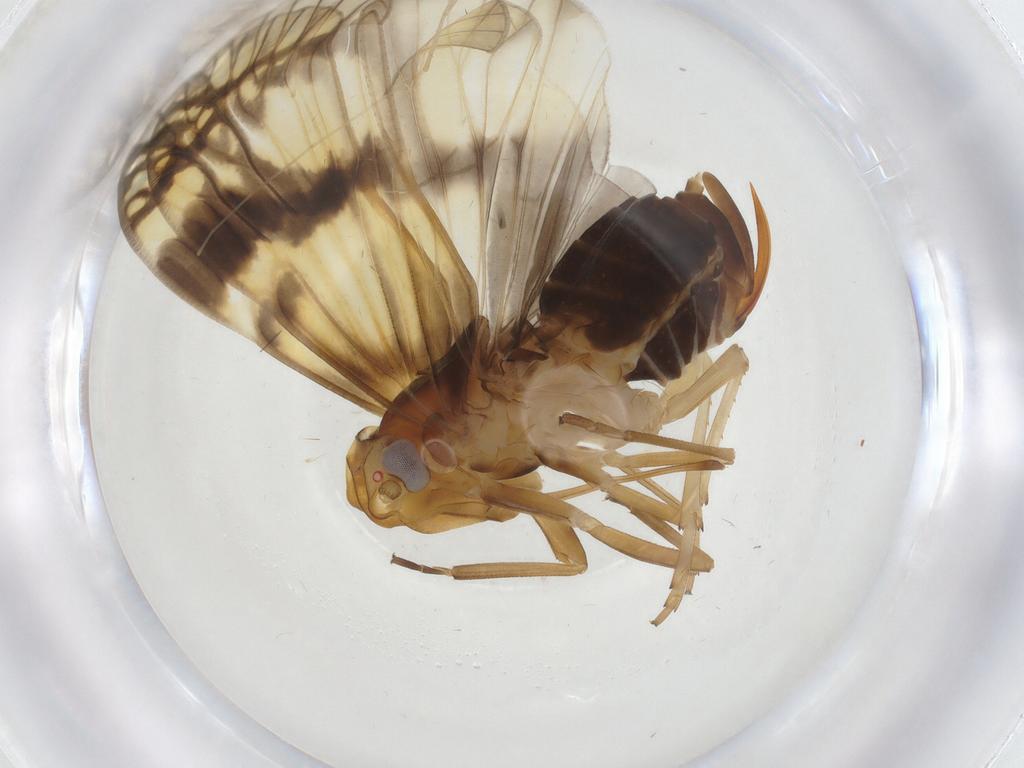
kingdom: Animalia
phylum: Arthropoda
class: Insecta
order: Hemiptera
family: Cixiidae
